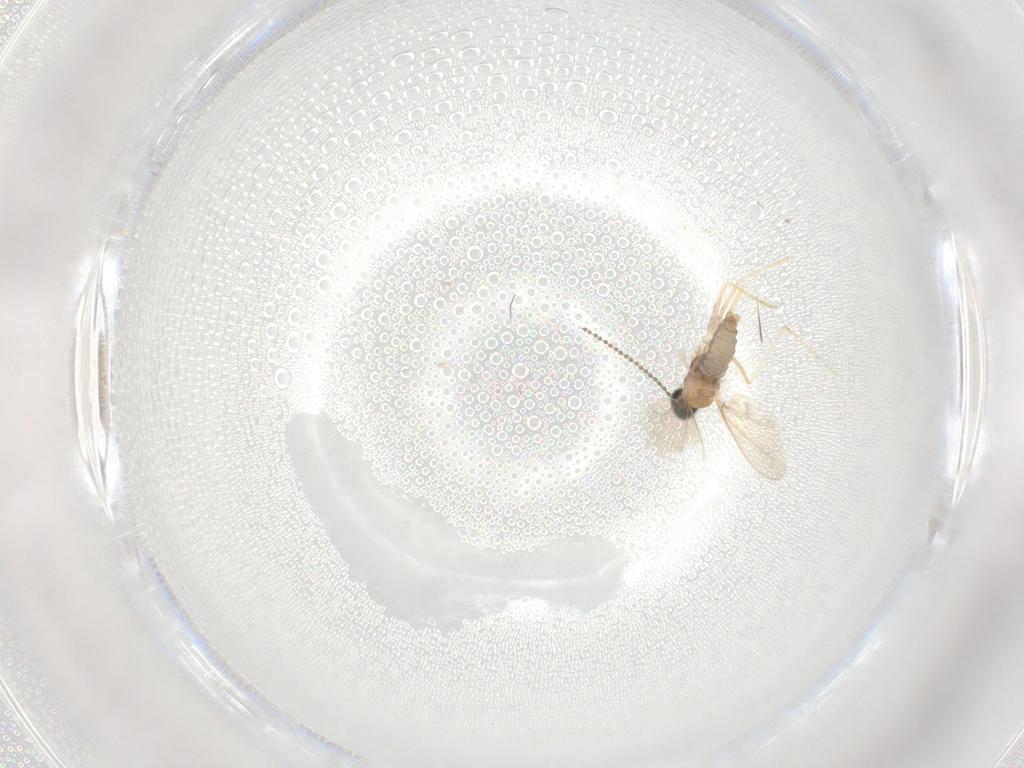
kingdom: Animalia
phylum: Arthropoda
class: Insecta
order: Diptera
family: Cecidomyiidae
